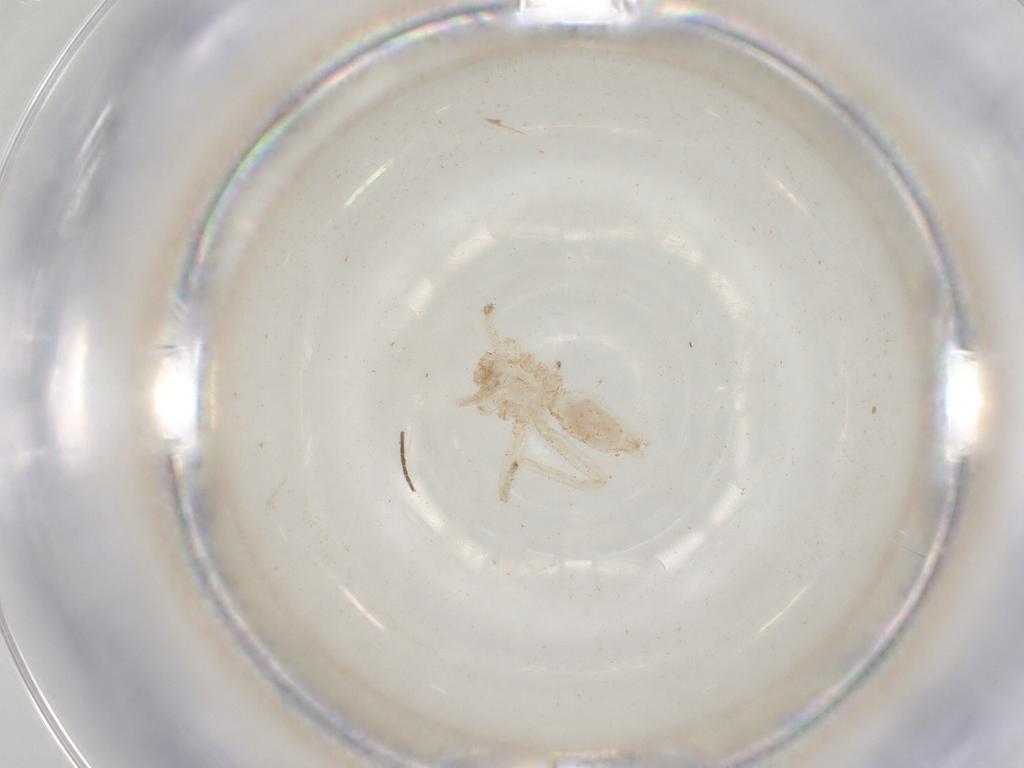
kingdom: Animalia
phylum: Arthropoda
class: Arachnida
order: Araneae
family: Anyphaenidae
